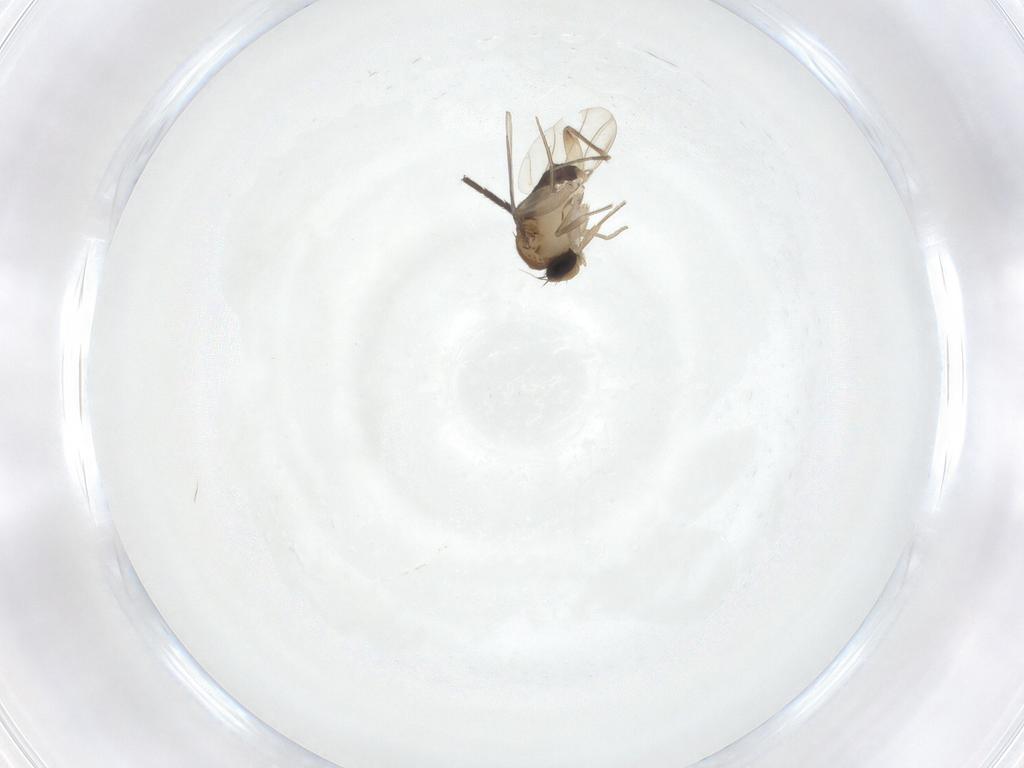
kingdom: Animalia
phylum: Arthropoda
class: Insecta
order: Diptera
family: Phoridae
